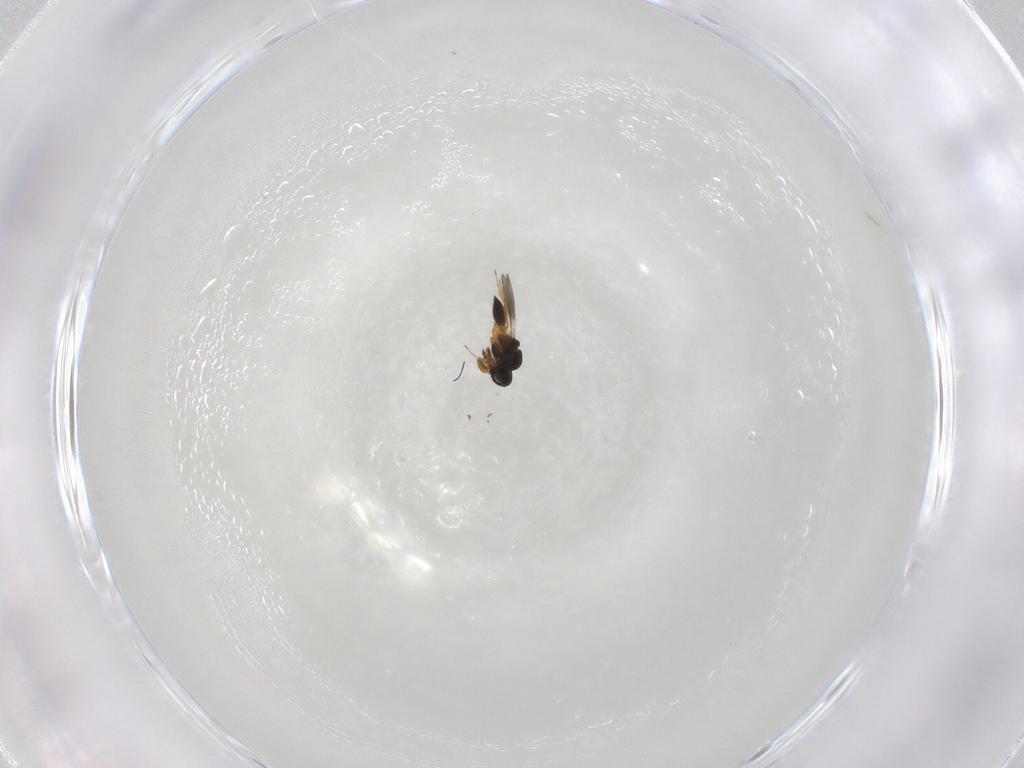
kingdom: Animalia
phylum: Arthropoda
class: Insecta
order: Hymenoptera
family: Platygastridae
